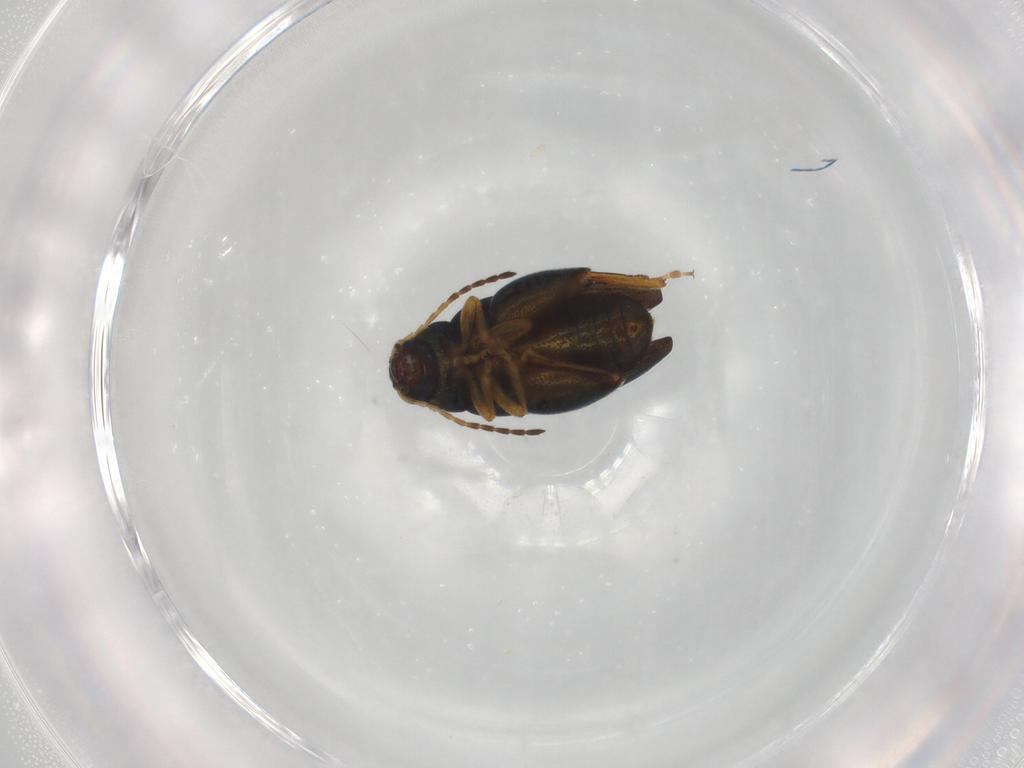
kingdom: Animalia
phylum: Arthropoda
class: Insecta
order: Coleoptera
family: Chrysomelidae
